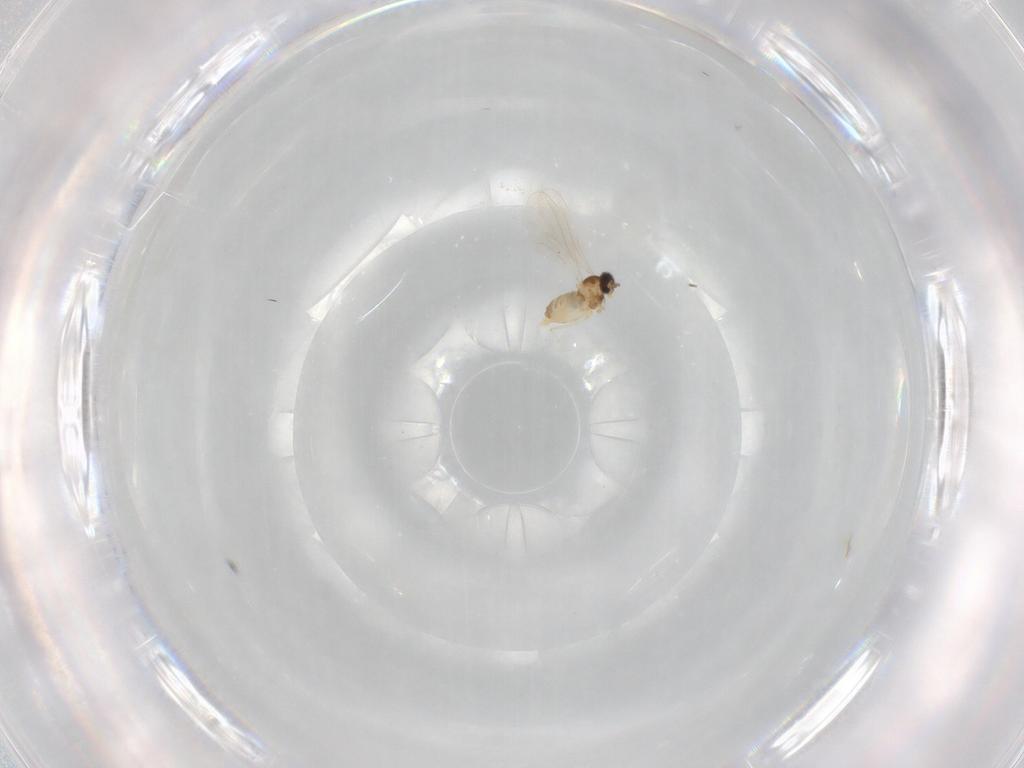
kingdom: Animalia
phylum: Arthropoda
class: Insecta
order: Diptera
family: Cecidomyiidae
